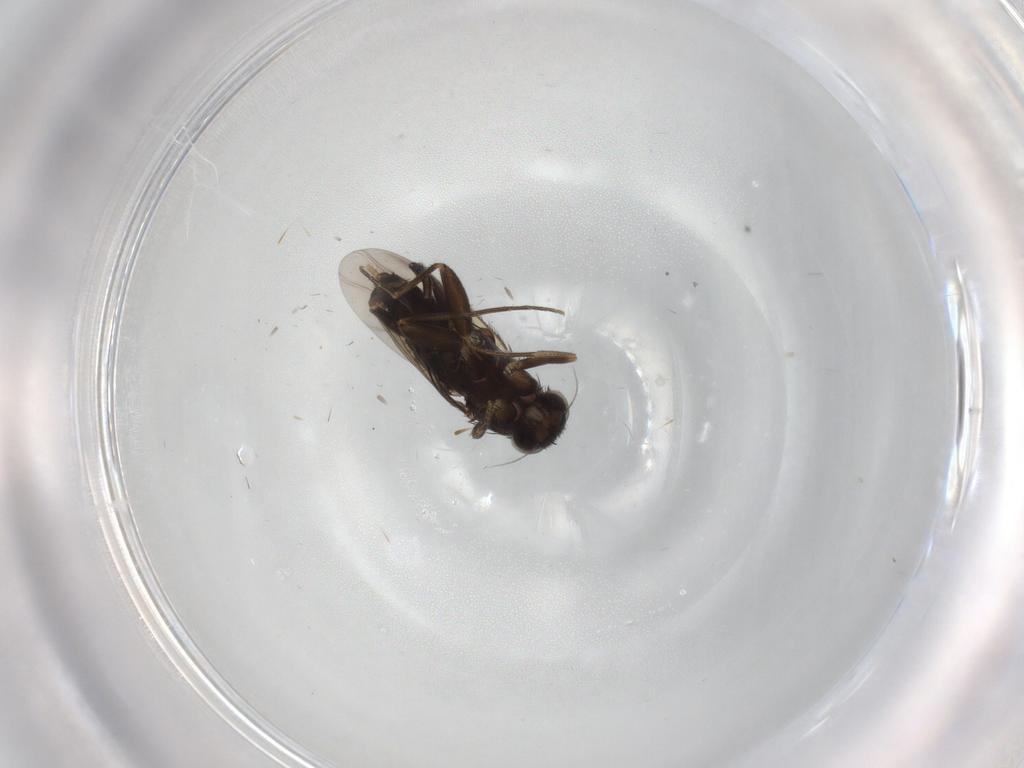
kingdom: Animalia
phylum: Arthropoda
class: Insecta
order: Diptera
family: Phoridae
